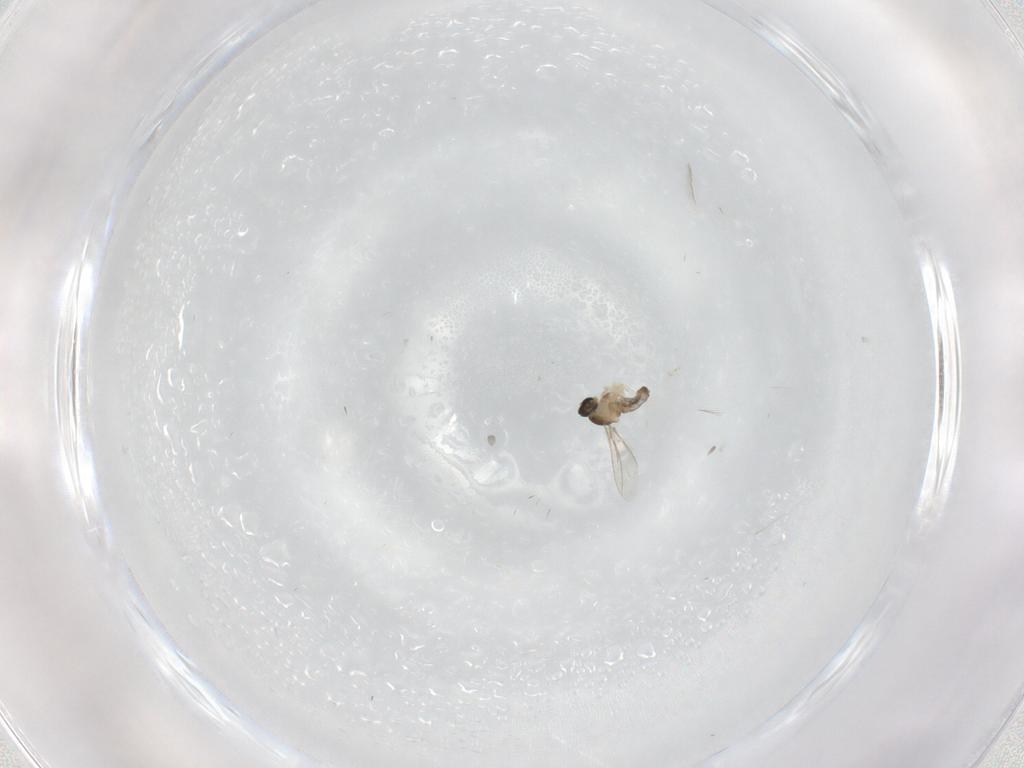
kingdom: Animalia
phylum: Arthropoda
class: Insecta
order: Diptera
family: Cecidomyiidae
